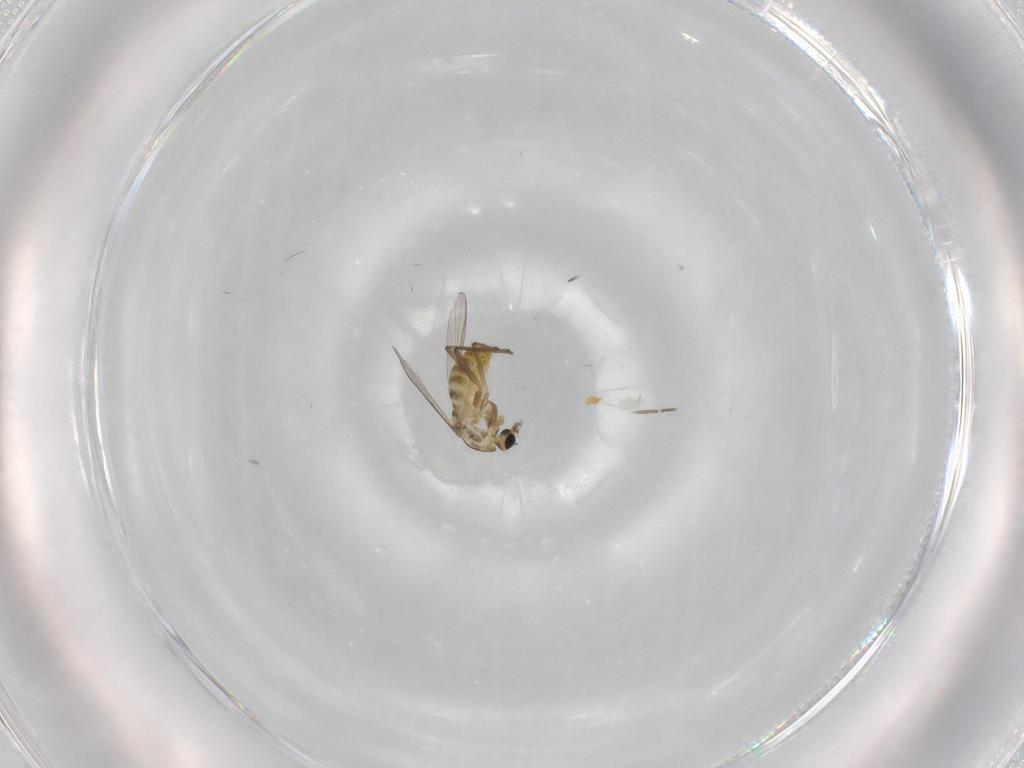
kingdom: Animalia
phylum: Arthropoda
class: Insecta
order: Diptera
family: Chironomidae
